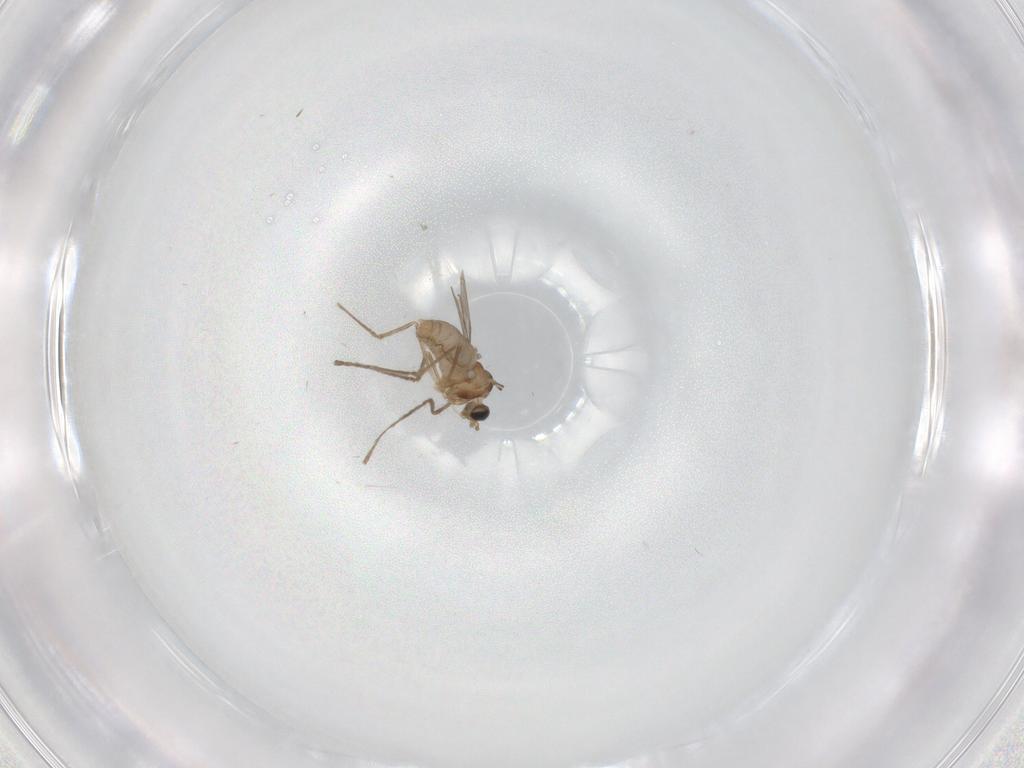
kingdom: Animalia
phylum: Arthropoda
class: Insecta
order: Diptera
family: Cecidomyiidae
